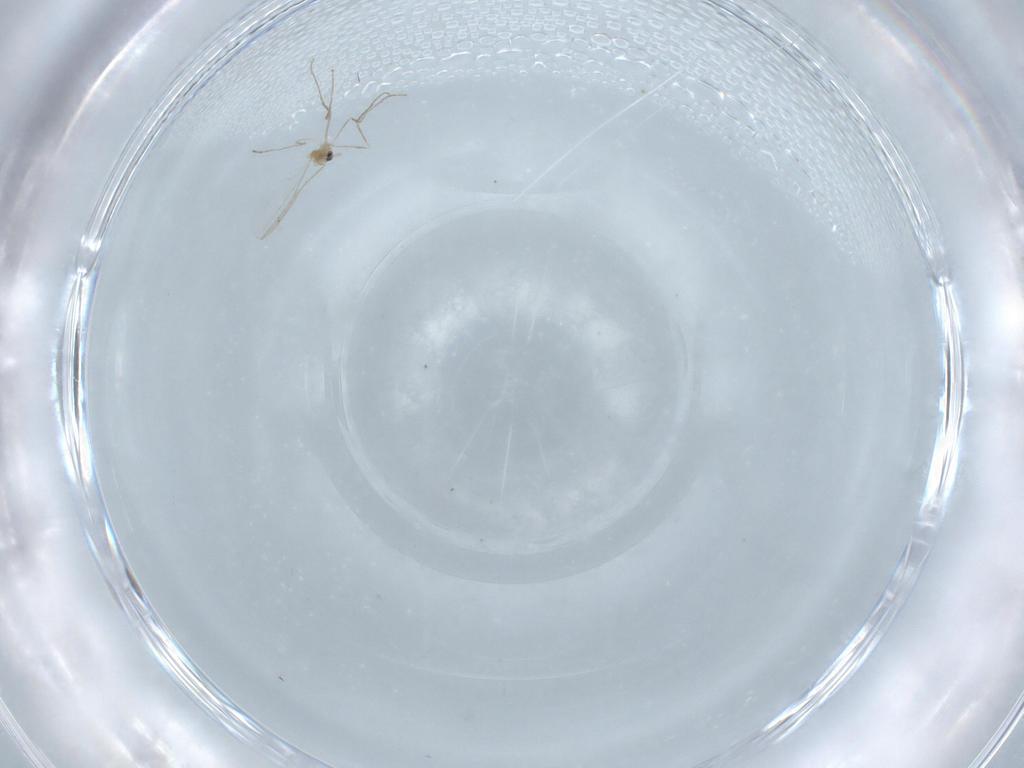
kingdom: Animalia
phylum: Arthropoda
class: Insecta
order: Diptera
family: Cecidomyiidae
